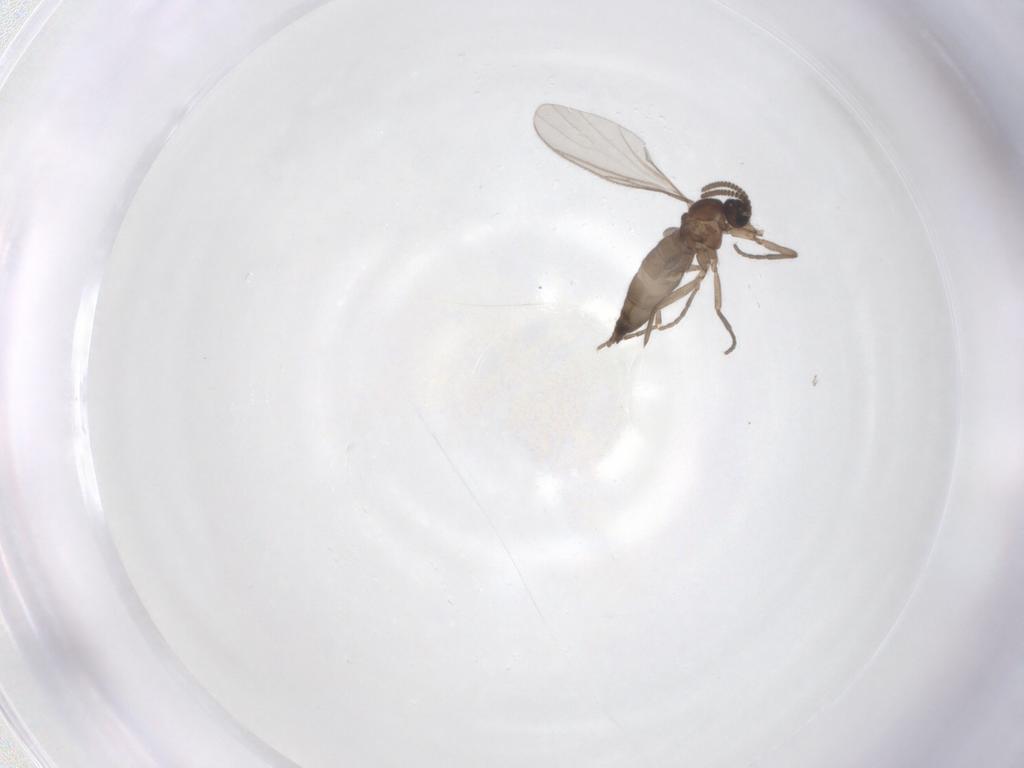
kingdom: Animalia
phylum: Arthropoda
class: Insecta
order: Diptera
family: Sciaridae
